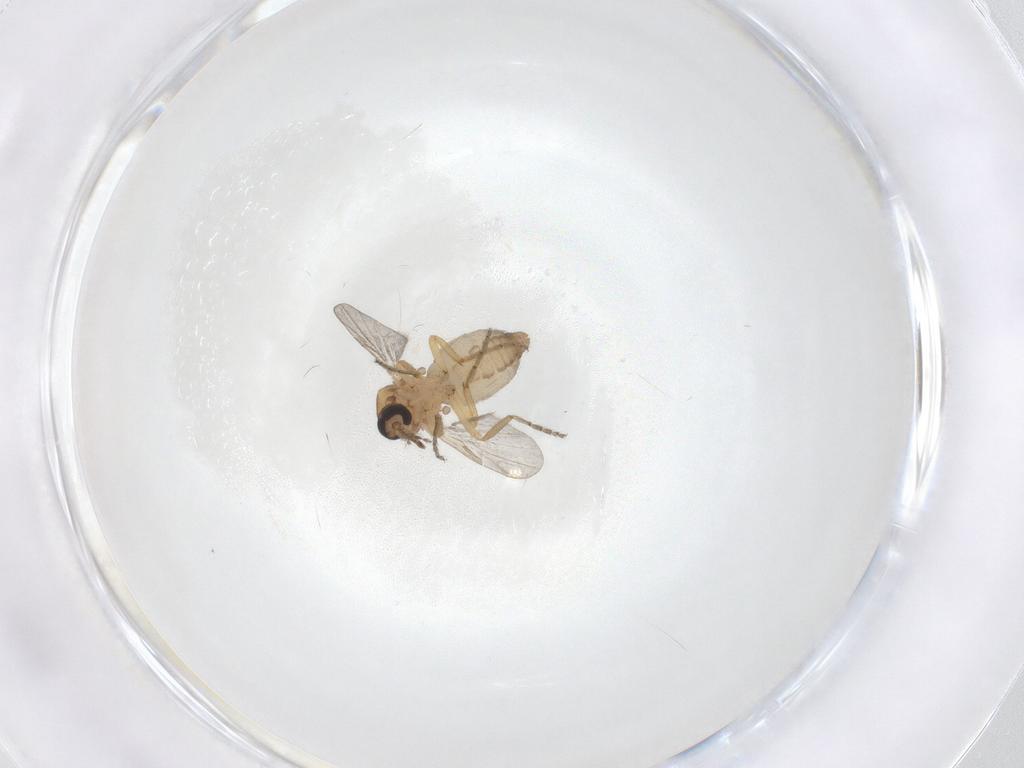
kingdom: Animalia
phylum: Arthropoda
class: Insecta
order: Diptera
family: Ceratopogonidae
